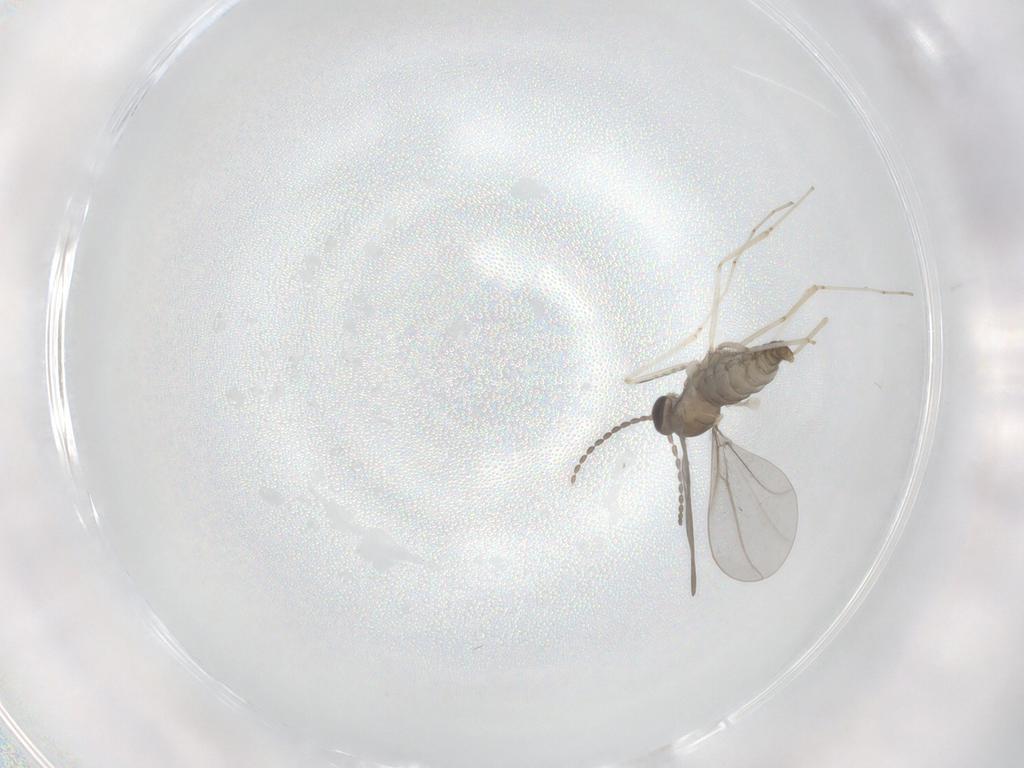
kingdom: Animalia
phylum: Arthropoda
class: Insecta
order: Diptera
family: Cecidomyiidae
